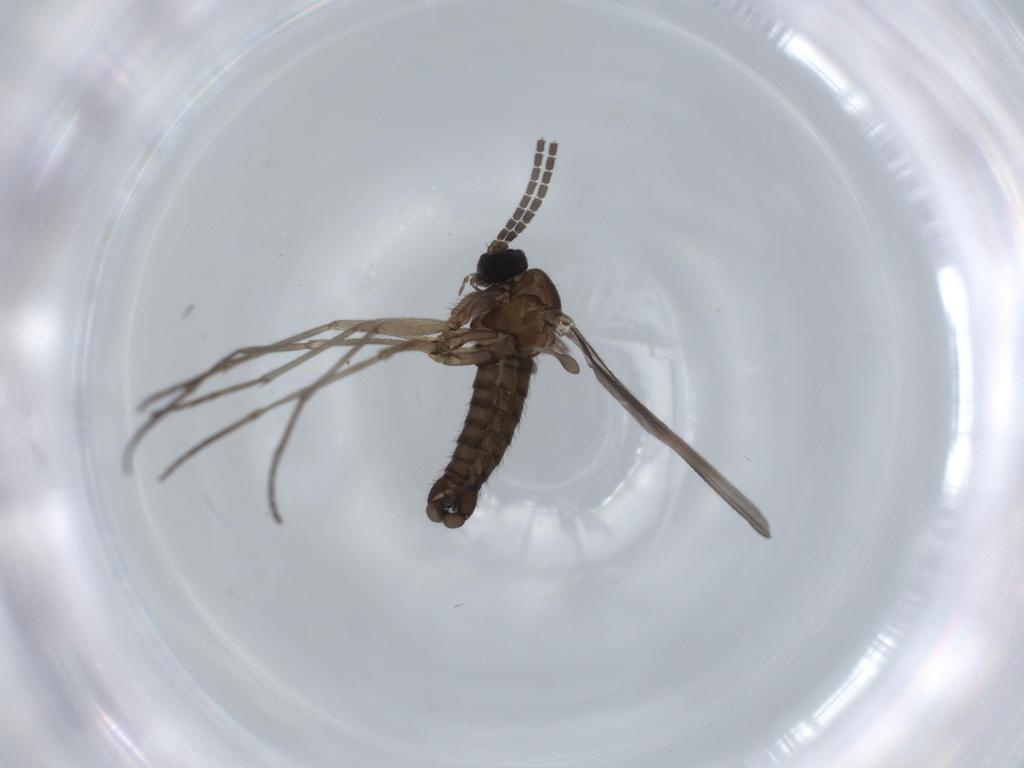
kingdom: Animalia
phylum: Arthropoda
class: Insecta
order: Diptera
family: Sciaridae
